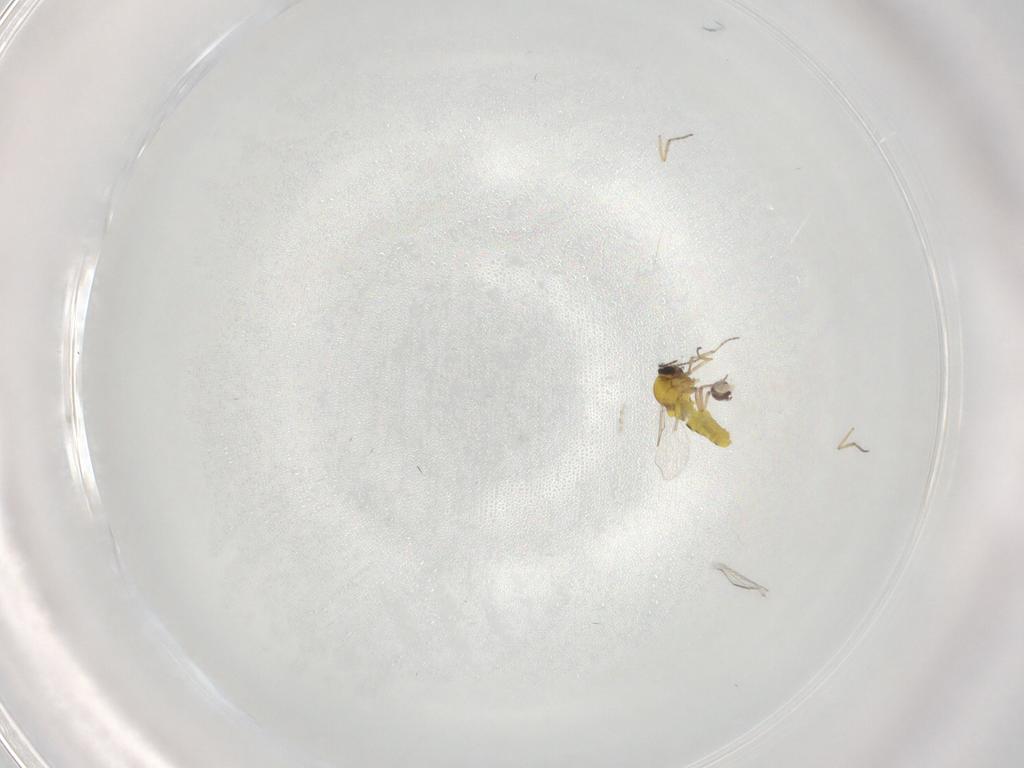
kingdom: Animalia
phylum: Arthropoda
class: Insecta
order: Diptera
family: Cecidomyiidae
